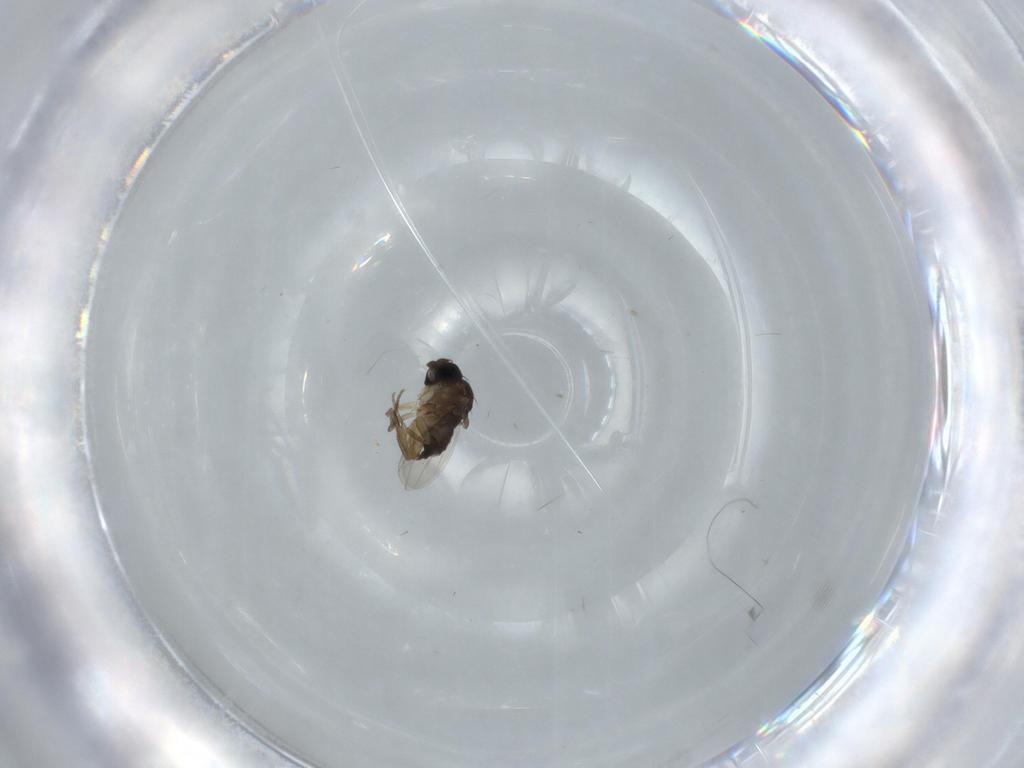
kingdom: Animalia
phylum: Arthropoda
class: Insecta
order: Diptera
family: Phoridae
